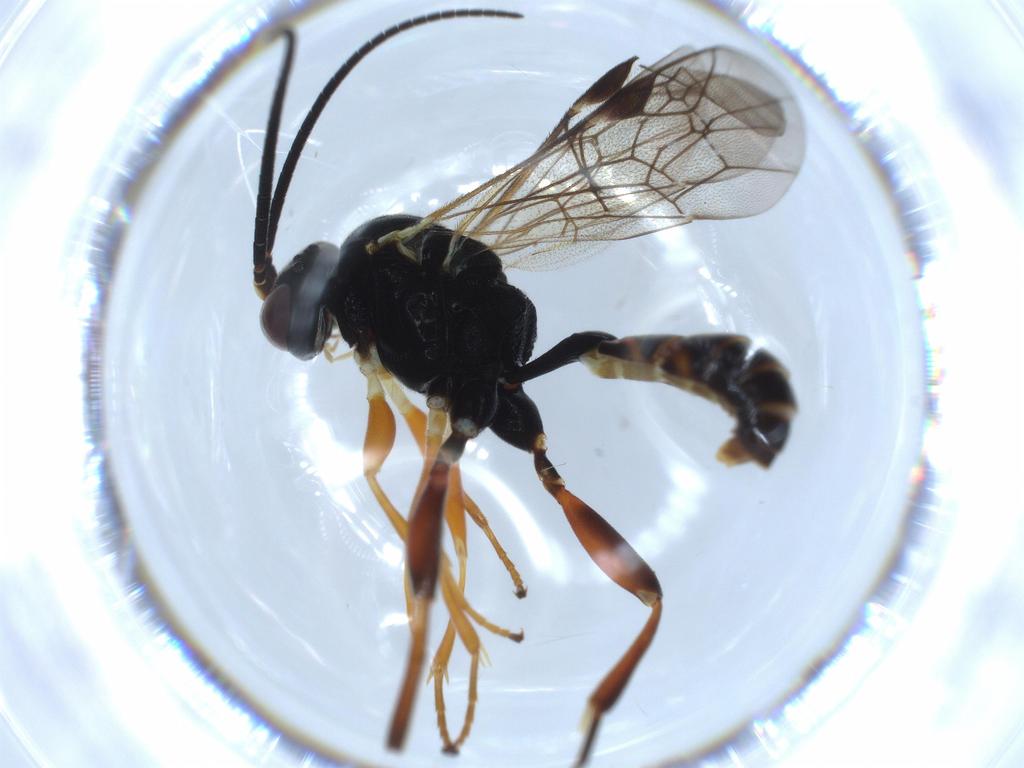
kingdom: Animalia
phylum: Arthropoda
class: Insecta
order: Hymenoptera
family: Ichneumonidae
